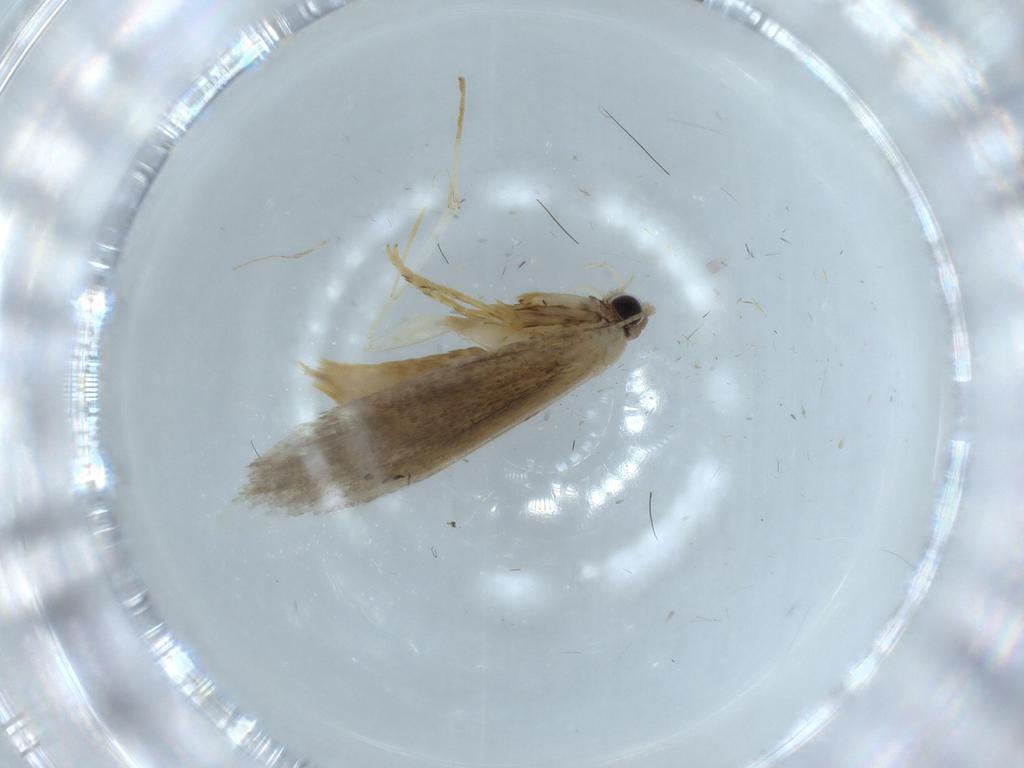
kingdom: Animalia
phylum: Arthropoda
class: Insecta
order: Lepidoptera
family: Tineidae
